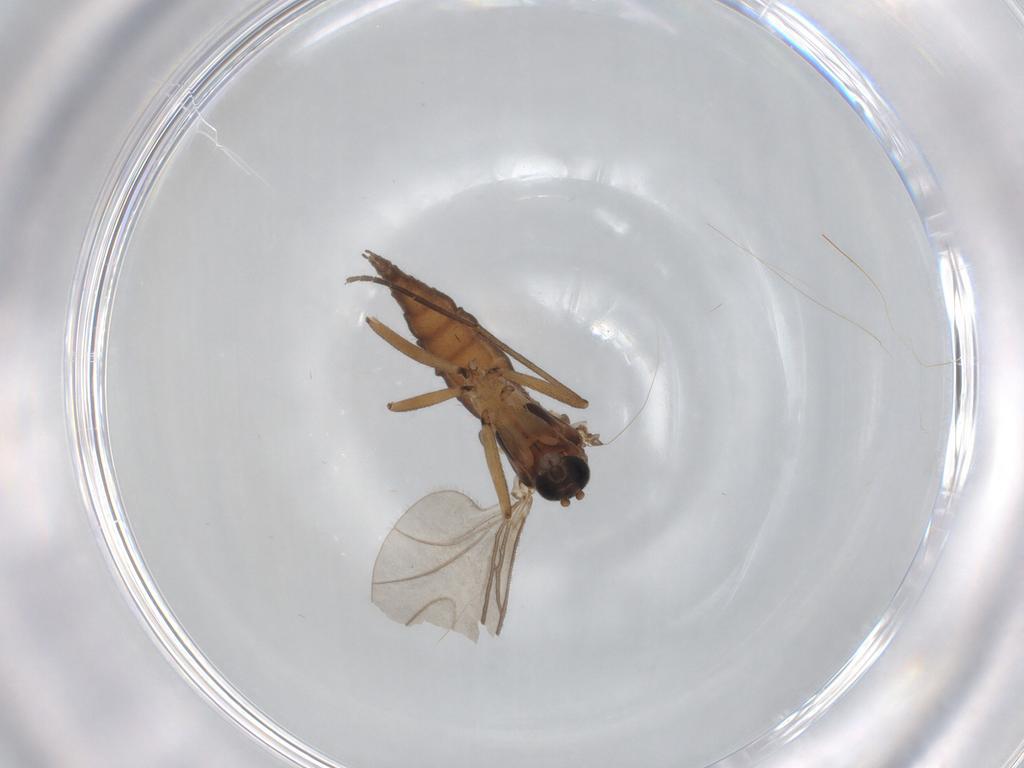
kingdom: Animalia
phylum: Arthropoda
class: Insecta
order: Diptera
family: Sciaridae
